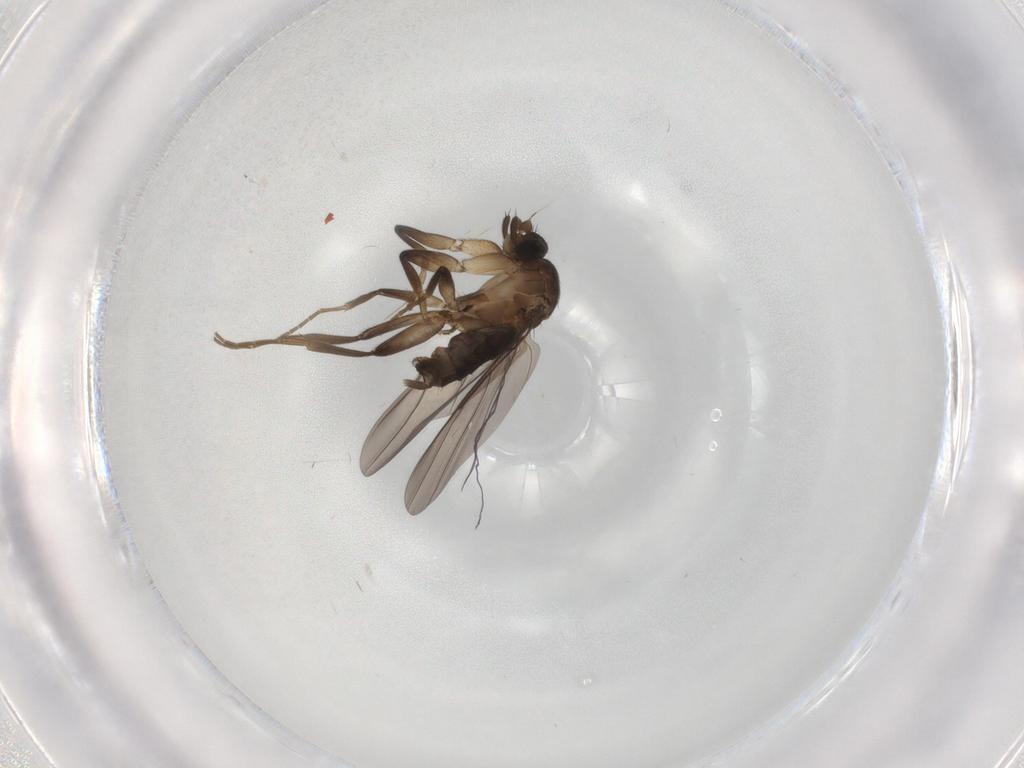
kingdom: Animalia
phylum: Arthropoda
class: Insecta
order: Diptera
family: Phoridae
